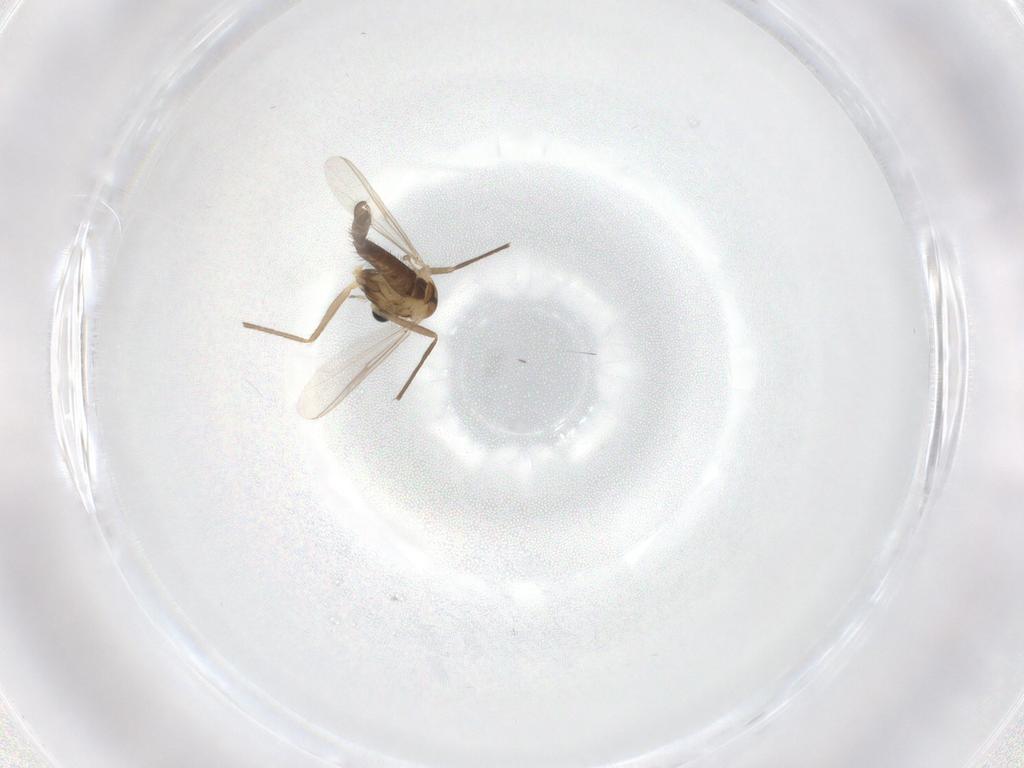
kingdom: Animalia
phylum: Arthropoda
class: Insecta
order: Diptera
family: Chironomidae
